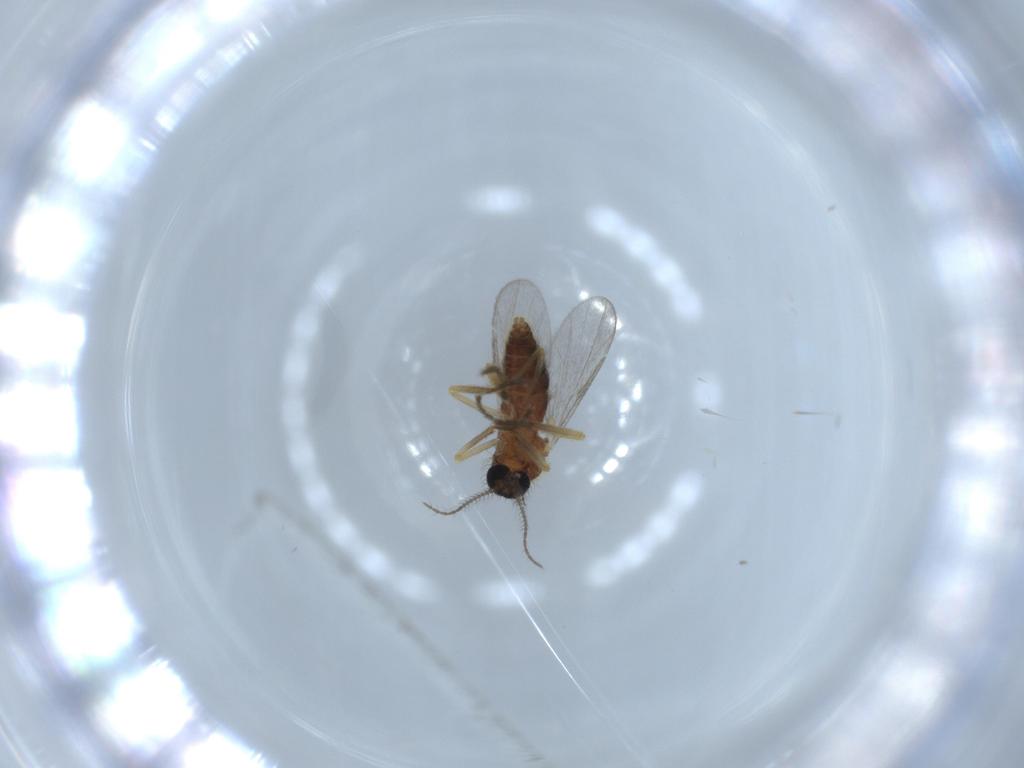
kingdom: Animalia
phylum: Arthropoda
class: Insecta
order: Diptera
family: Ceratopogonidae
